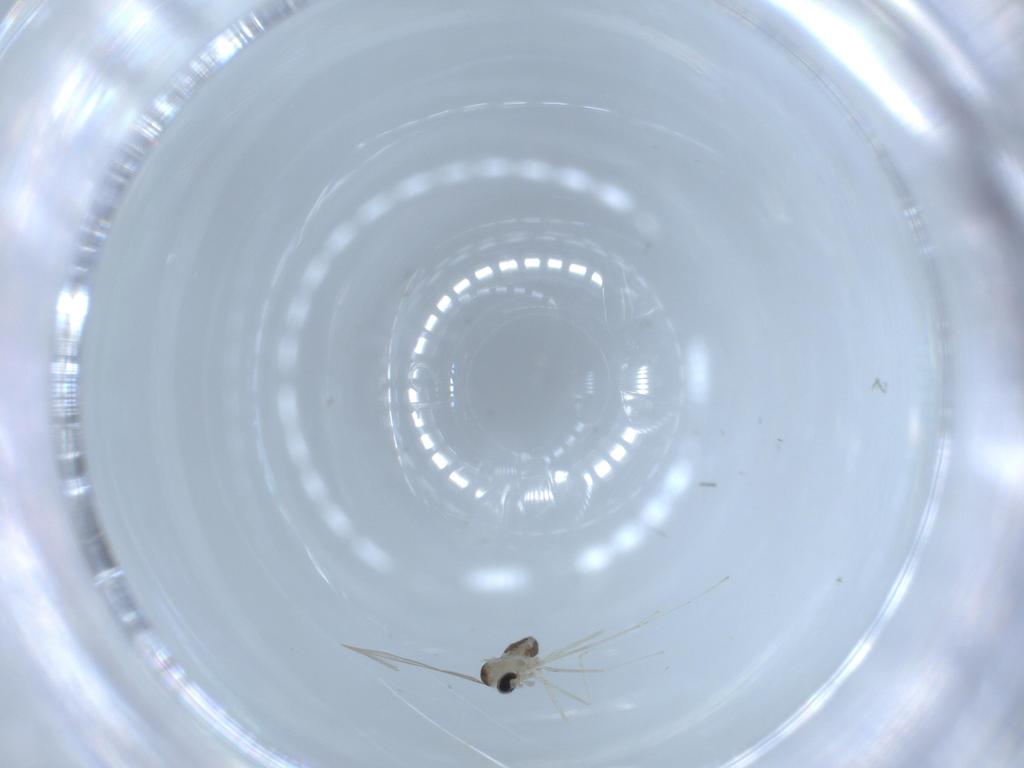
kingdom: Animalia
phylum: Arthropoda
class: Insecta
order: Diptera
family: Cecidomyiidae
